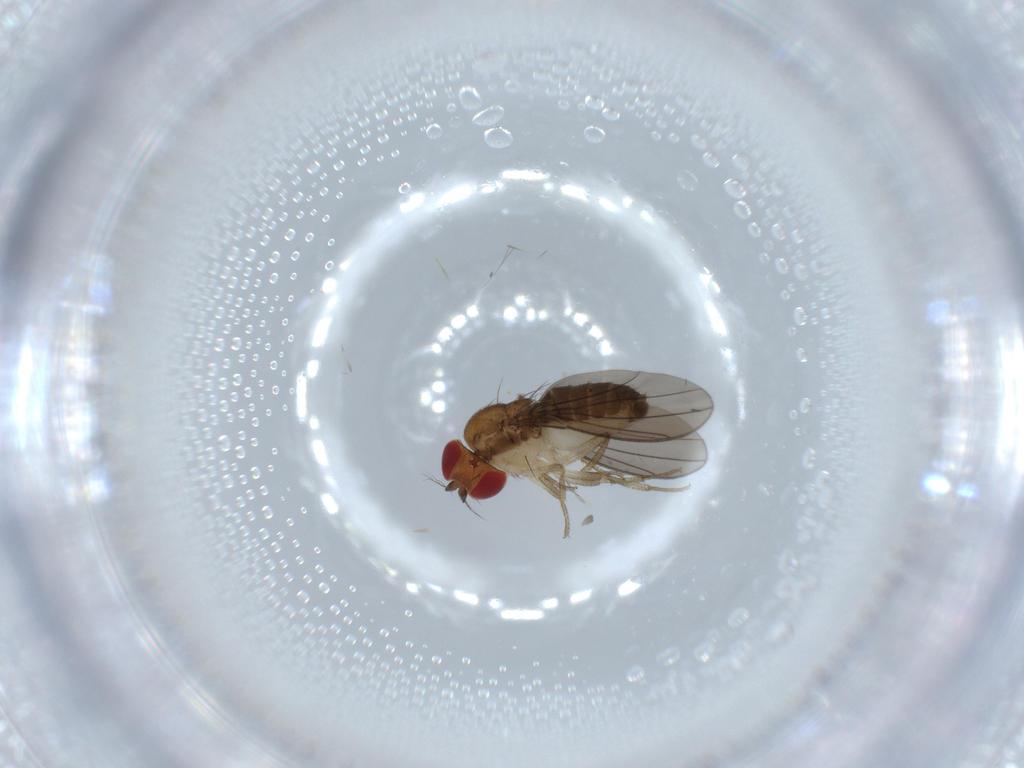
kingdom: Animalia
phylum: Arthropoda
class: Insecta
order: Diptera
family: Drosophilidae
